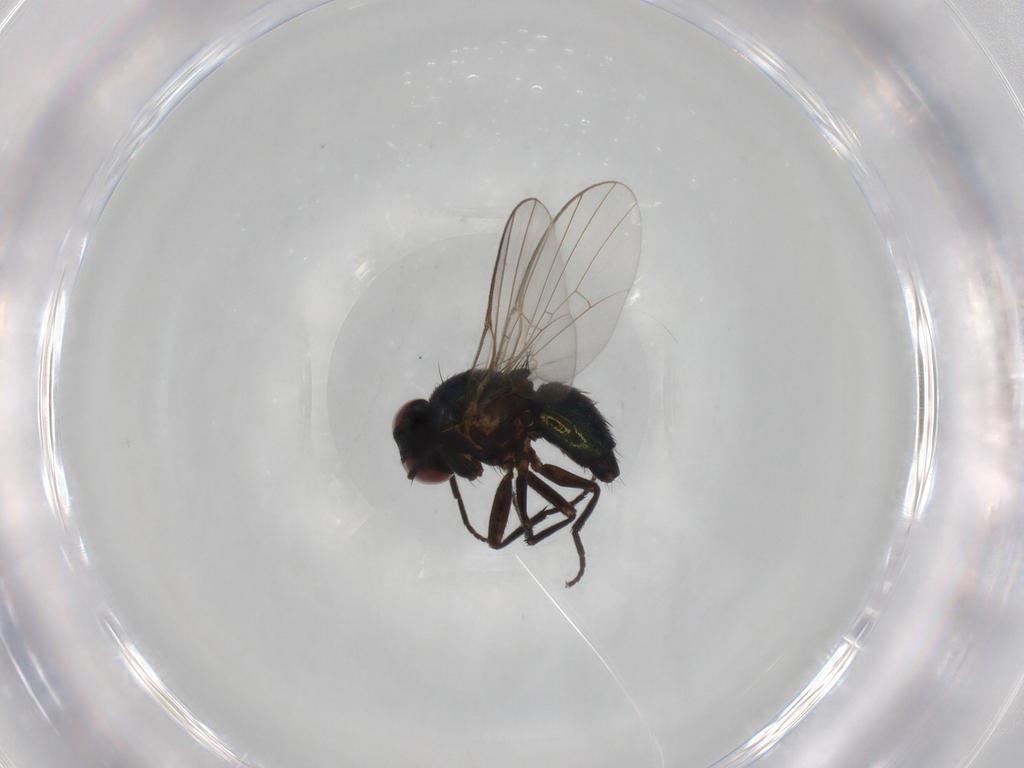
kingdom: Animalia
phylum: Arthropoda
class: Insecta
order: Diptera
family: Agromyzidae
